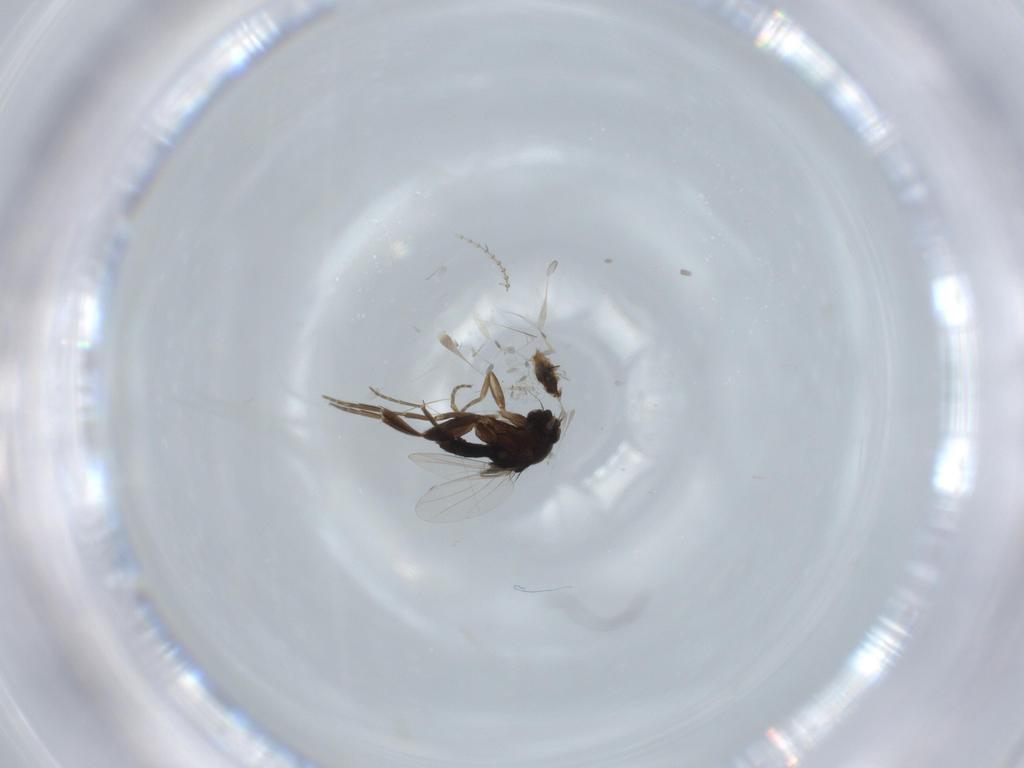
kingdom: Animalia
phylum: Arthropoda
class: Insecta
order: Diptera
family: Phoridae
